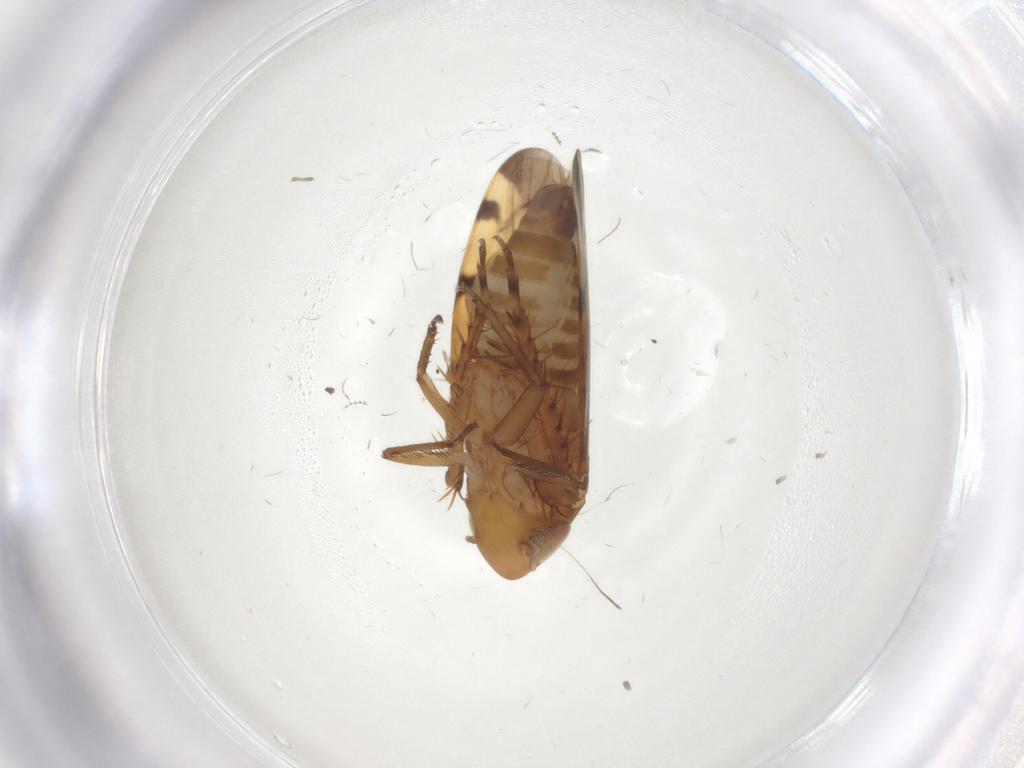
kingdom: Animalia
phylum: Arthropoda
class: Insecta
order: Hemiptera
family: Ceratocombidae
